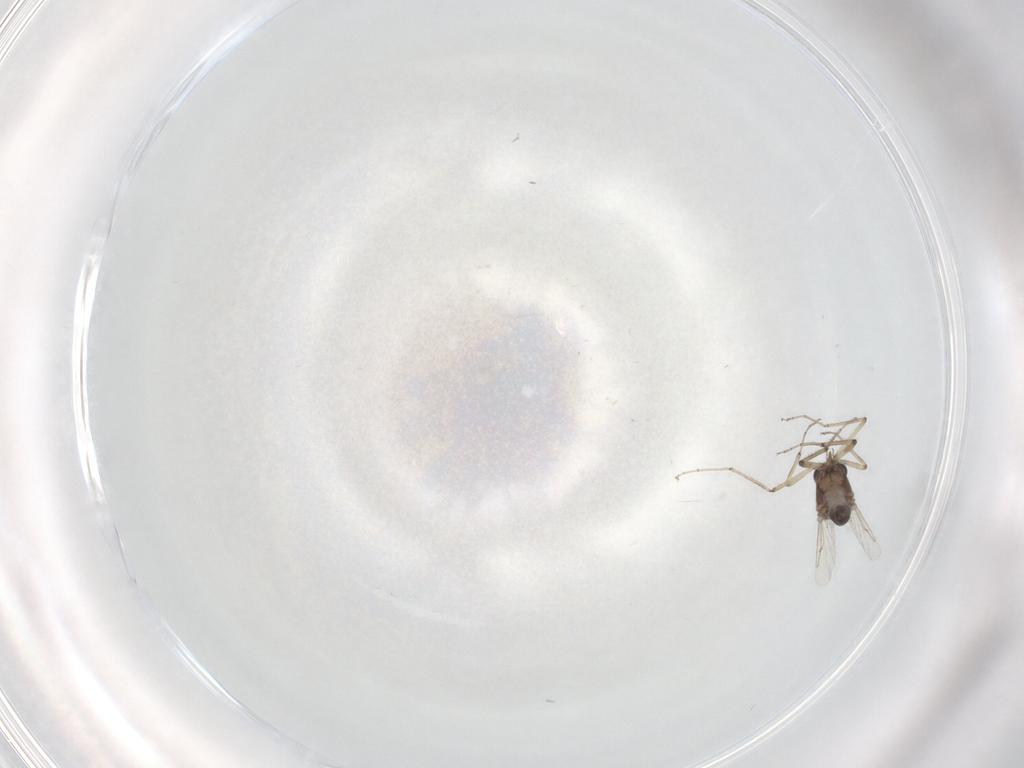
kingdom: Animalia
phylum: Arthropoda
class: Insecta
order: Diptera
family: Ceratopogonidae
